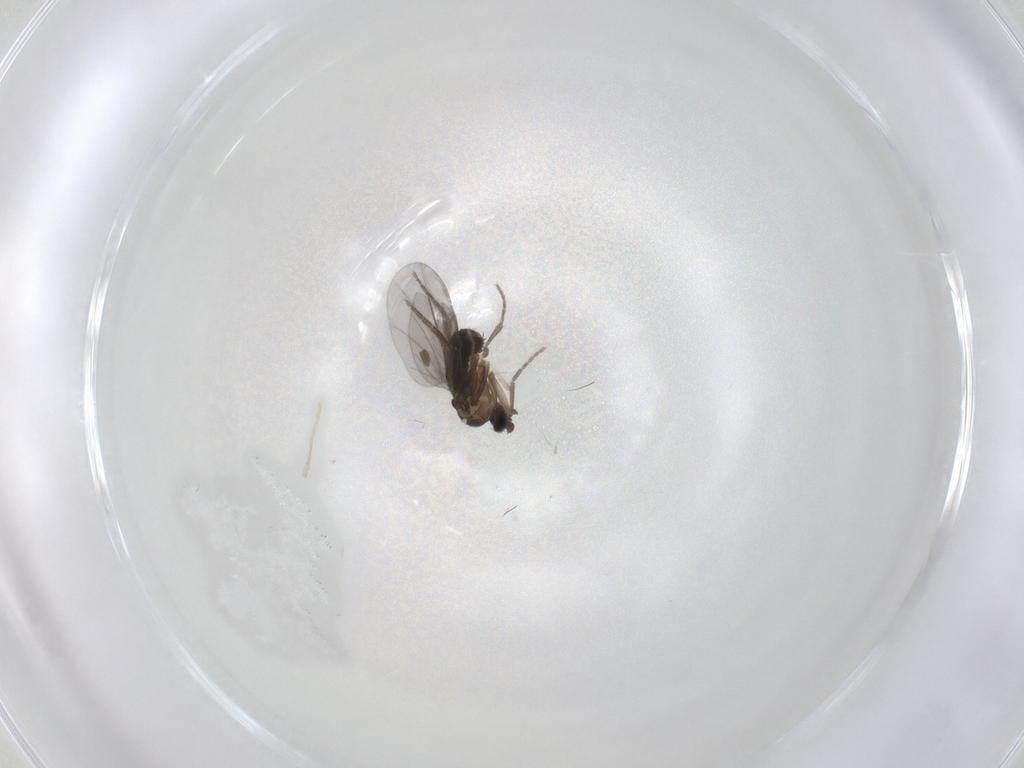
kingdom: Animalia
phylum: Arthropoda
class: Insecta
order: Diptera
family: Phoridae
